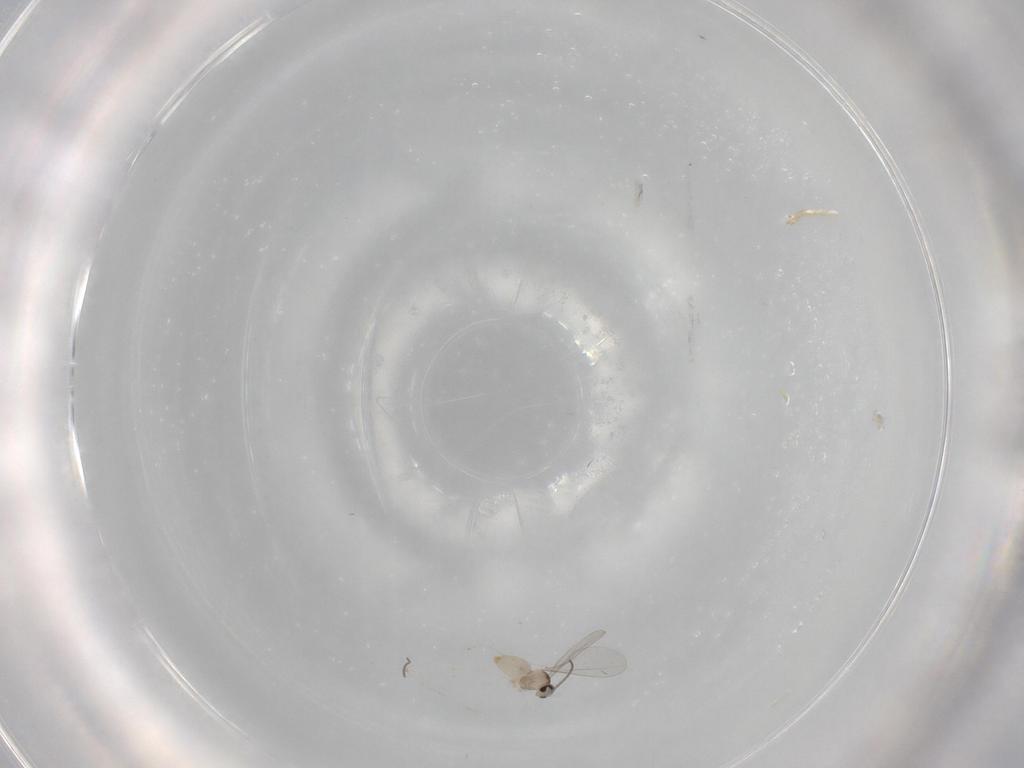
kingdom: Animalia
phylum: Arthropoda
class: Insecta
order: Diptera
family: Cecidomyiidae
